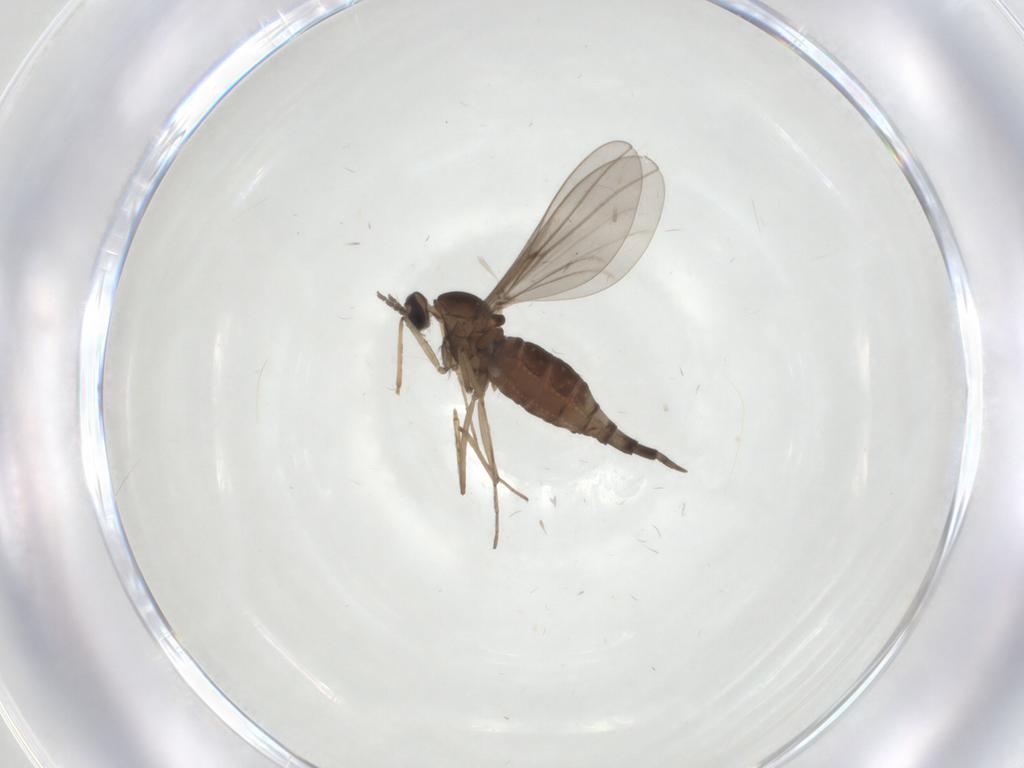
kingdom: Animalia
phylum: Arthropoda
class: Insecta
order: Diptera
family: Cecidomyiidae
